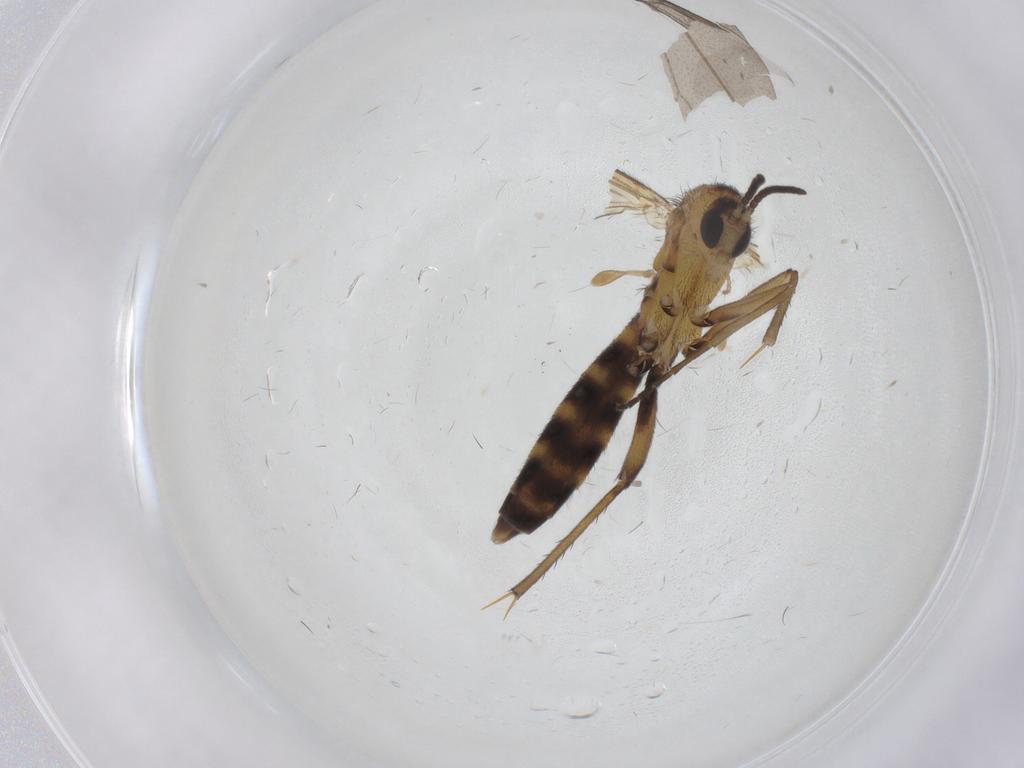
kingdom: Animalia
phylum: Arthropoda
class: Insecta
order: Diptera
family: Mycetophilidae
